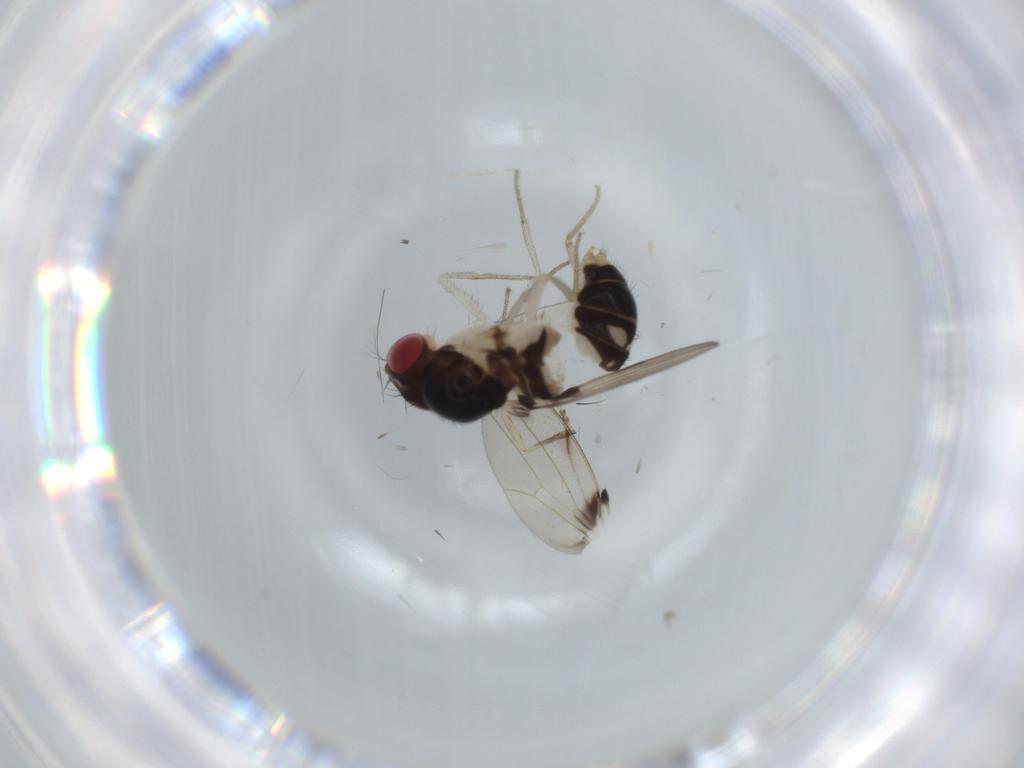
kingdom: Animalia
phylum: Arthropoda
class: Insecta
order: Diptera
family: Drosophilidae
